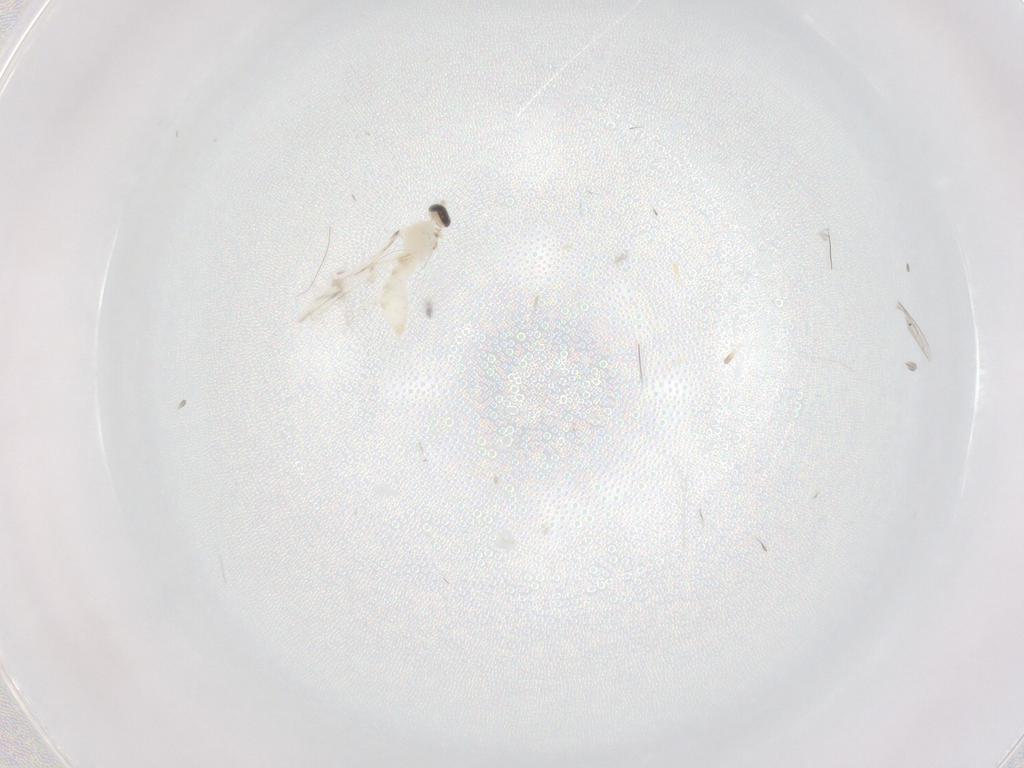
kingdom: Animalia
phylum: Arthropoda
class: Insecta
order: Diptera
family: Cecidomyiidae
